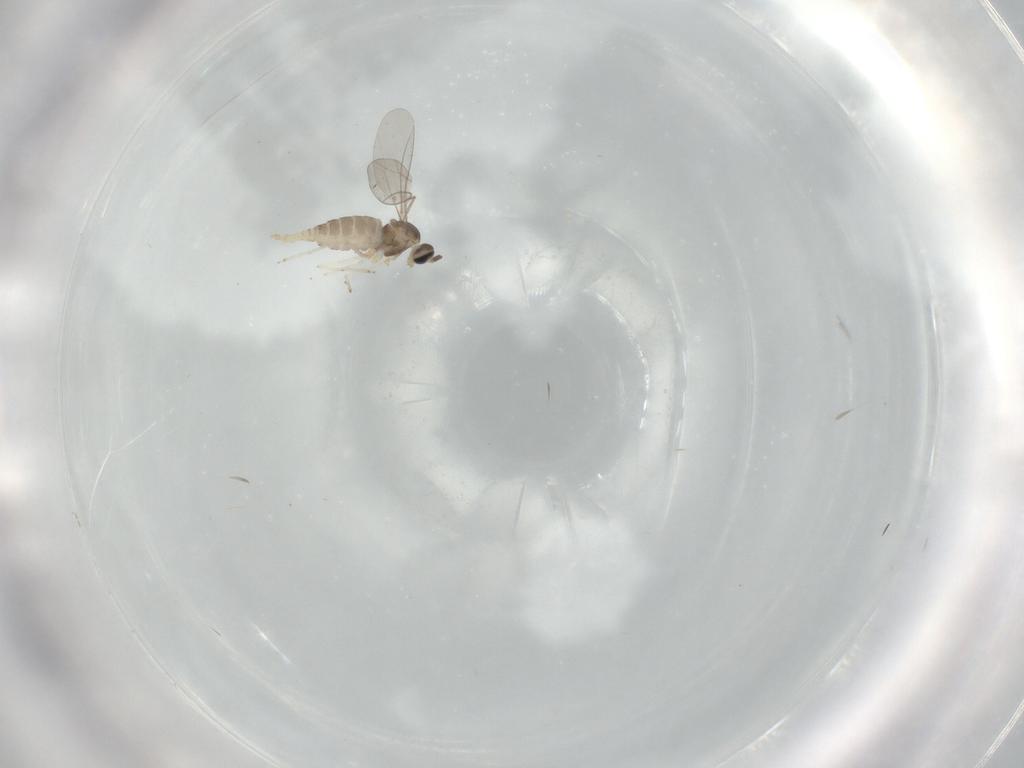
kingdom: Animalia
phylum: Arthropoda
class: Insecta
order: Diptera
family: Cecidomyiidae
